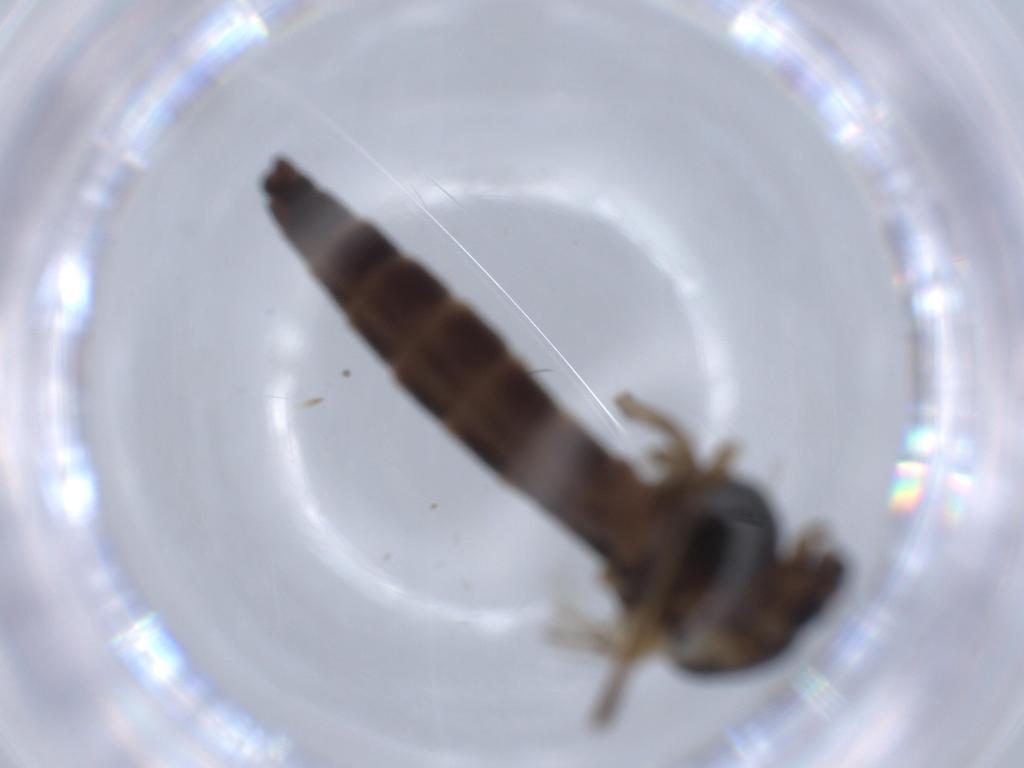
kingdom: Animalia
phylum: Arthropoda
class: Insecta
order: Diptera
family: Chironomidae
